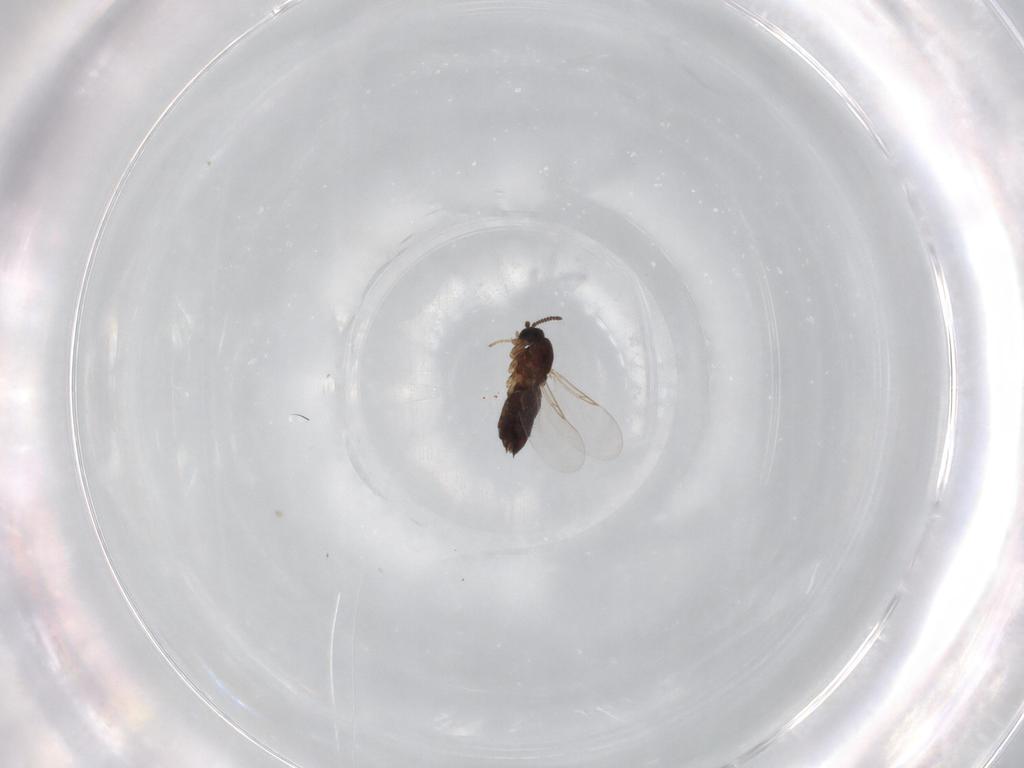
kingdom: Animalia
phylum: Arthropoda
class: Insecta
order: Diptera
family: Scatopsidae
